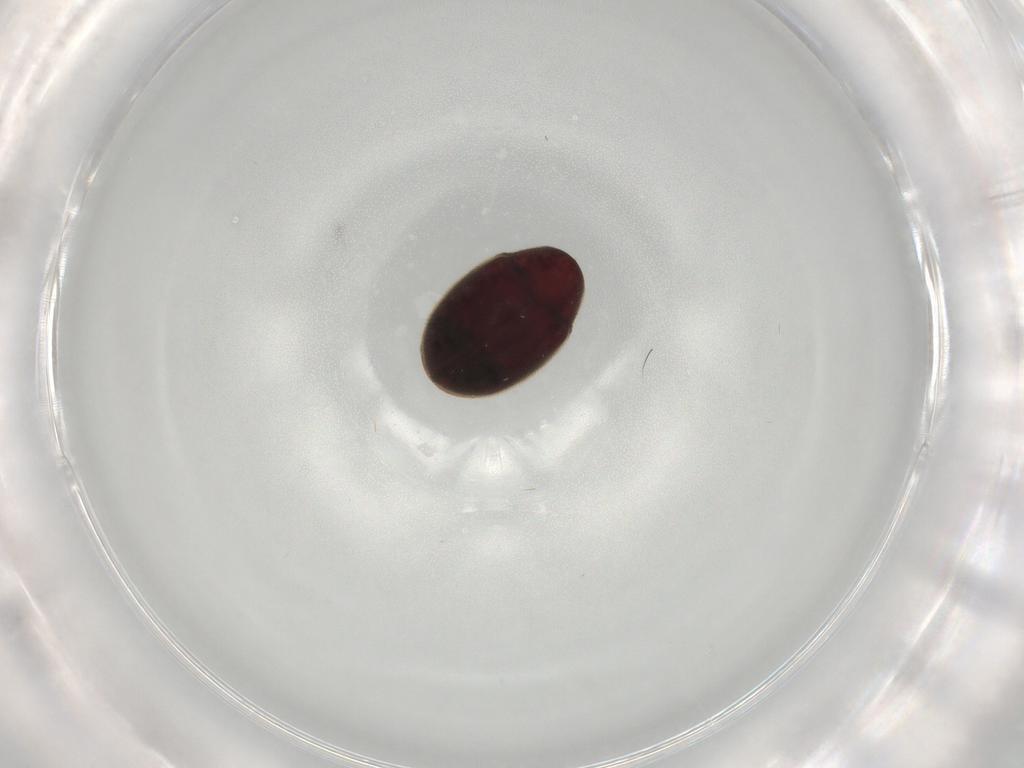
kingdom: Animalia
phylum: Arthropoda
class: Insecta
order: Coleoptera
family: Ptinidae
